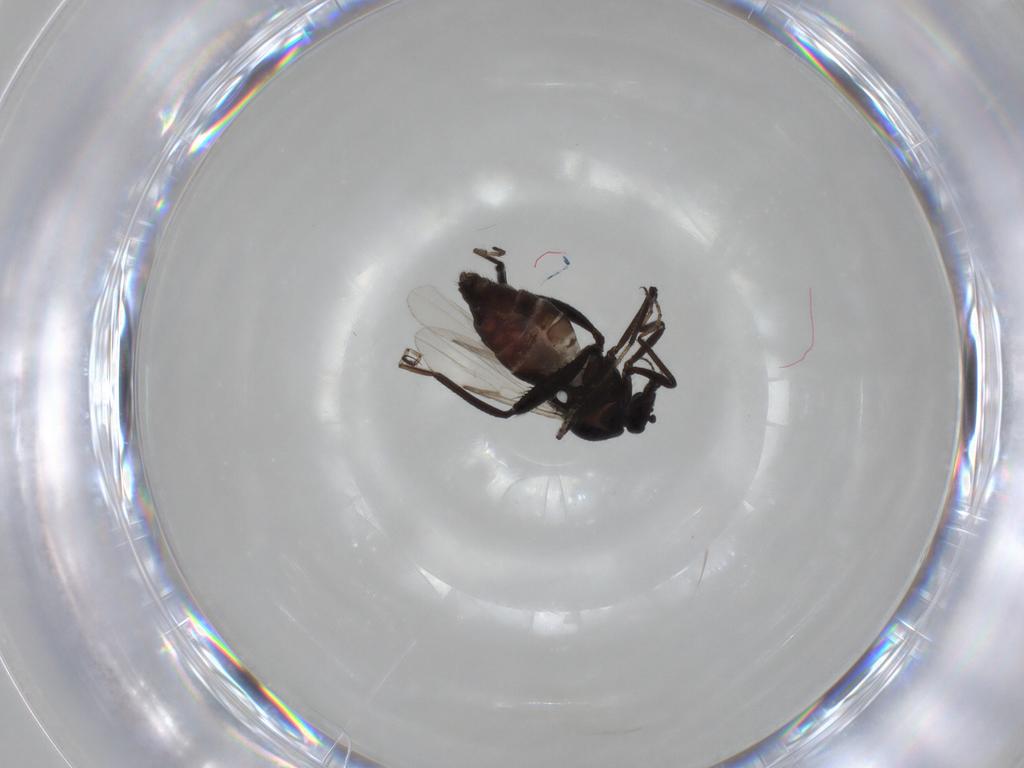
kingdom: Animalia
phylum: Arthropoda
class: Insecta
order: Diptera
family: Ceratopogonidae
